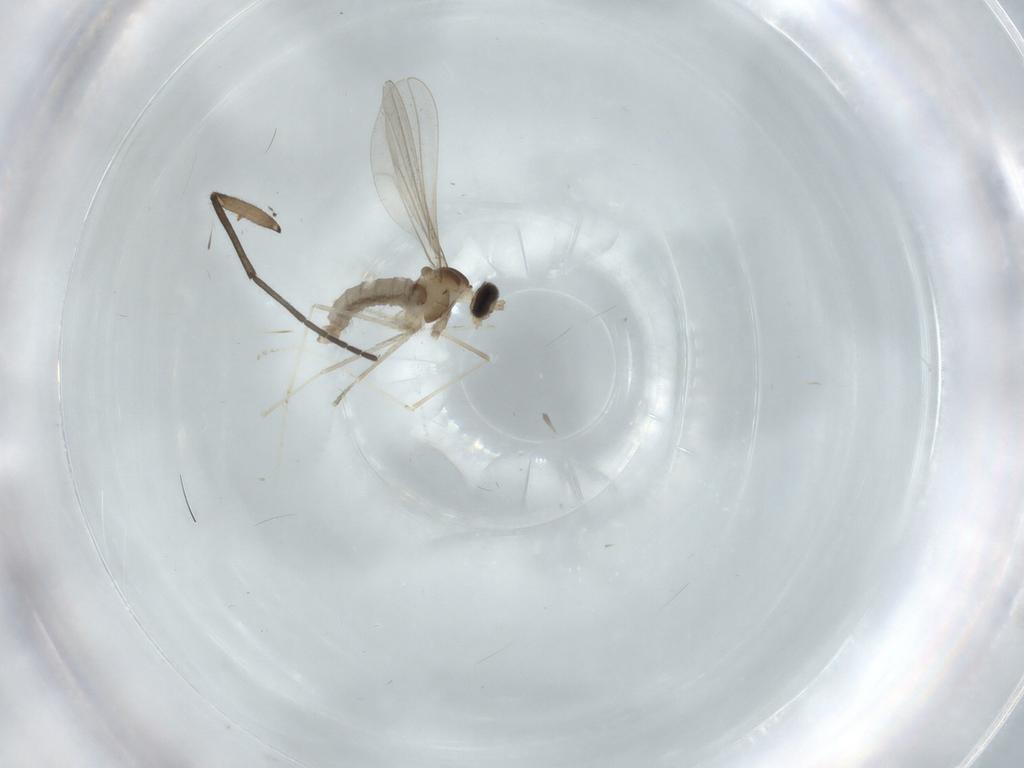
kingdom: Animalia
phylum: Arthropoda
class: Insecta
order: Diptera
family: Cecidomyiidae
